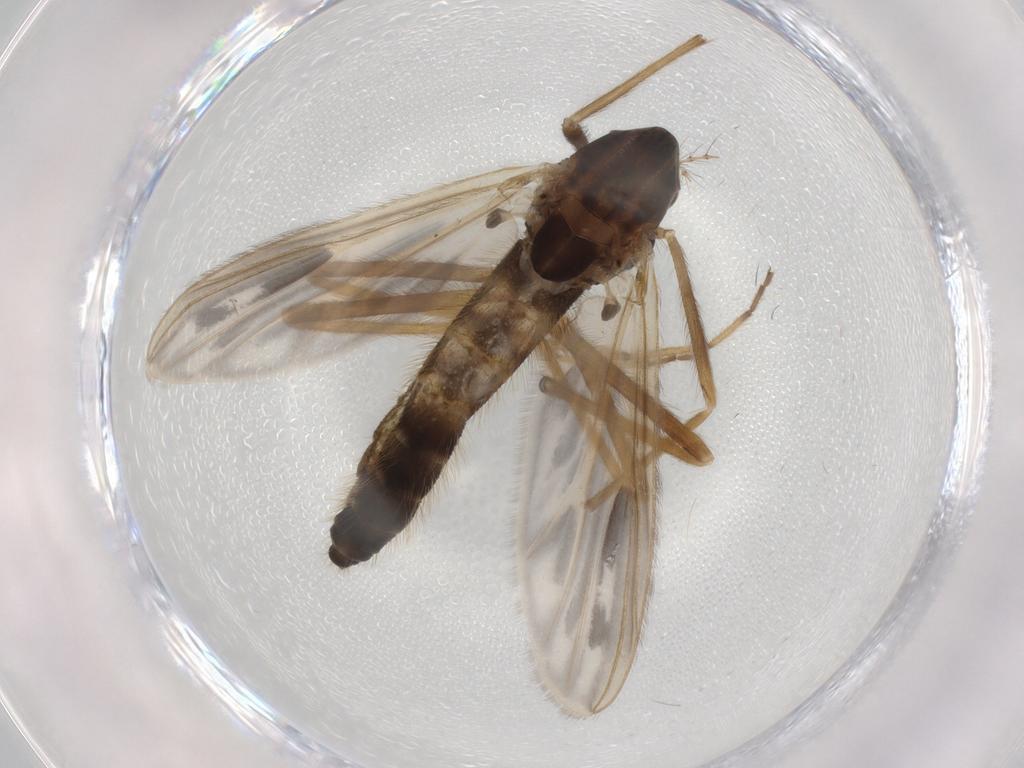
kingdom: Animalia
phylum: Arthropoda
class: Insecta
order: Diptera
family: Chironomidae
